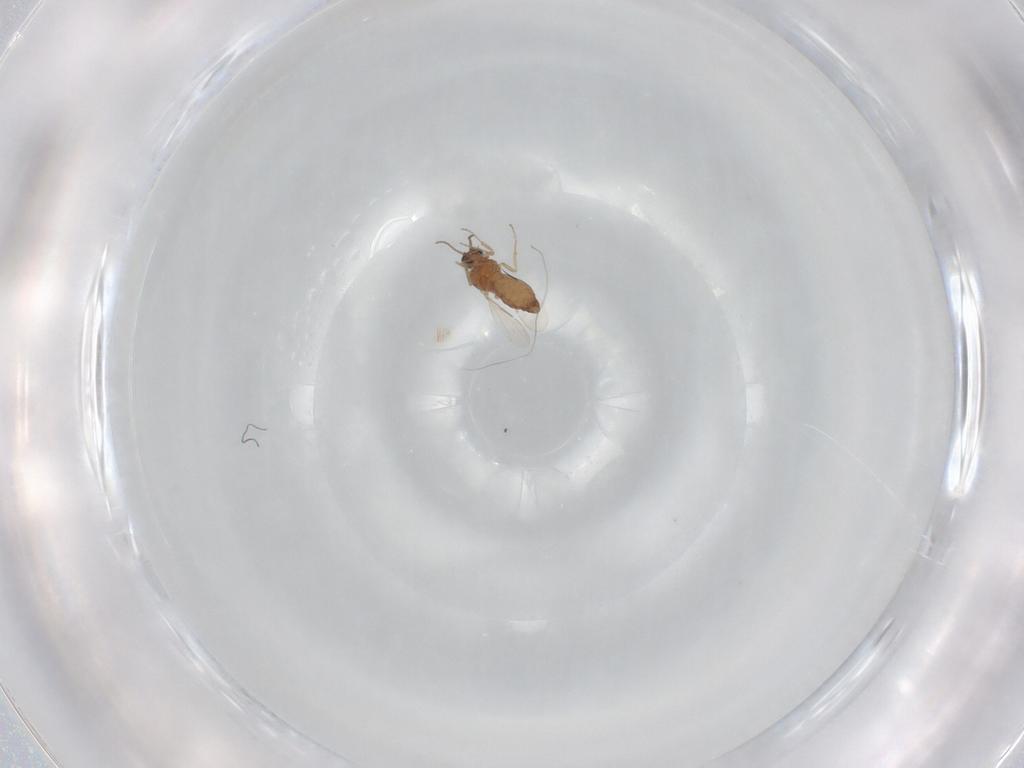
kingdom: Animalia
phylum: Arthropoda
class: Insecta
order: Diptera
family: Ceratopogonidae
